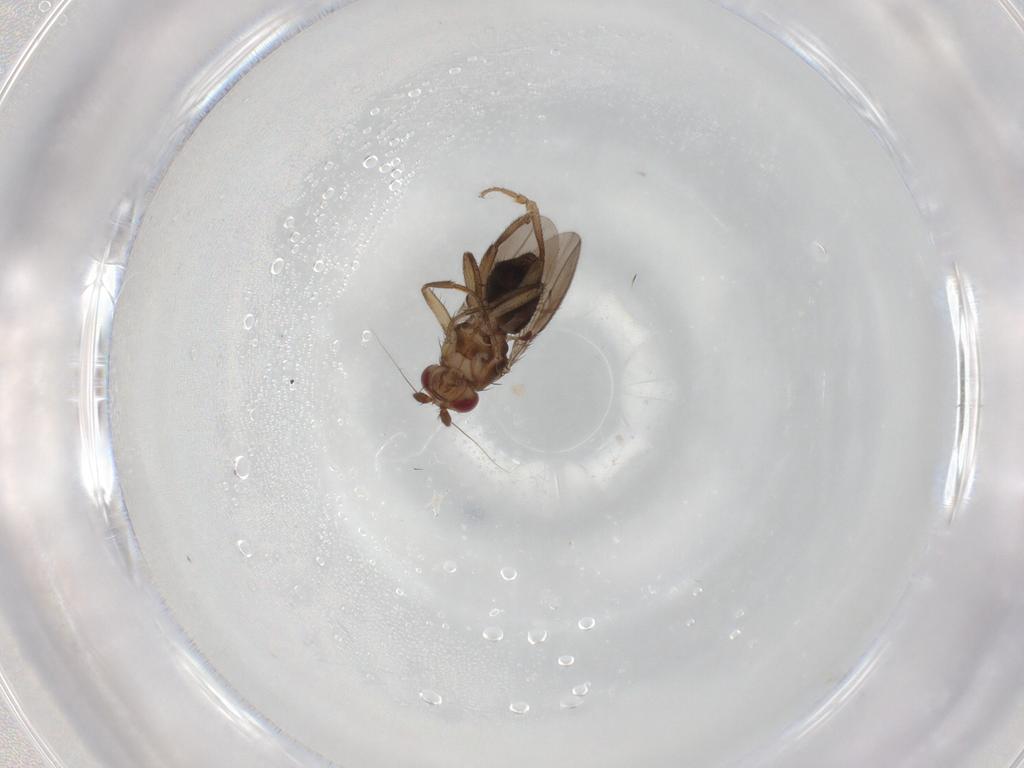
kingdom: Animalia
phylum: Arthropoda
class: Insecta
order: Diptera
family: Sphaeroceridae
